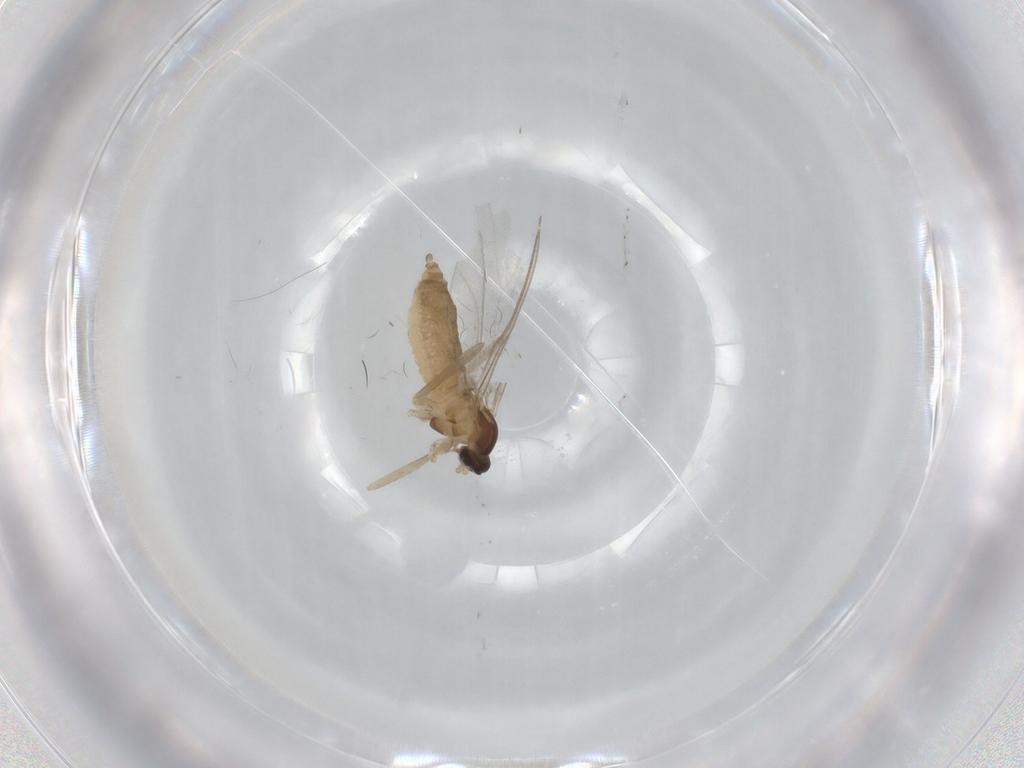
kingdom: Animalia
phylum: Arthropoda
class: Insecta
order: Diptera
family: Cecidomyiidae
